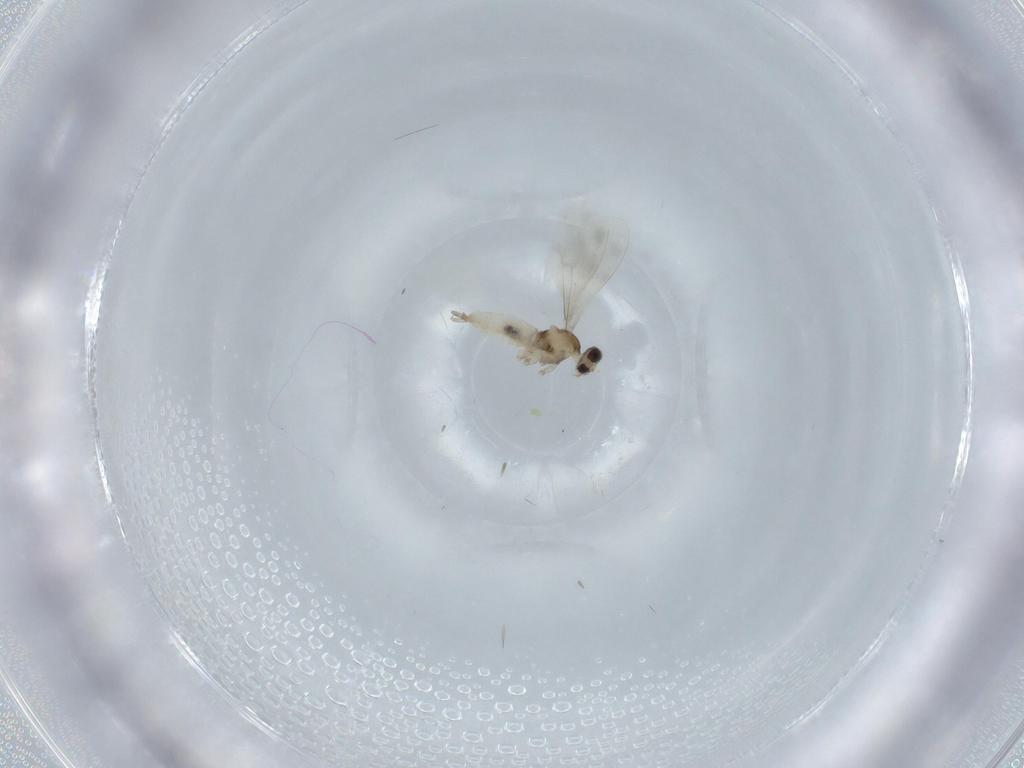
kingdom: Animalia
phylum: Arthropoda
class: Insecta
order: Diptera
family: Cecidomyiidae
